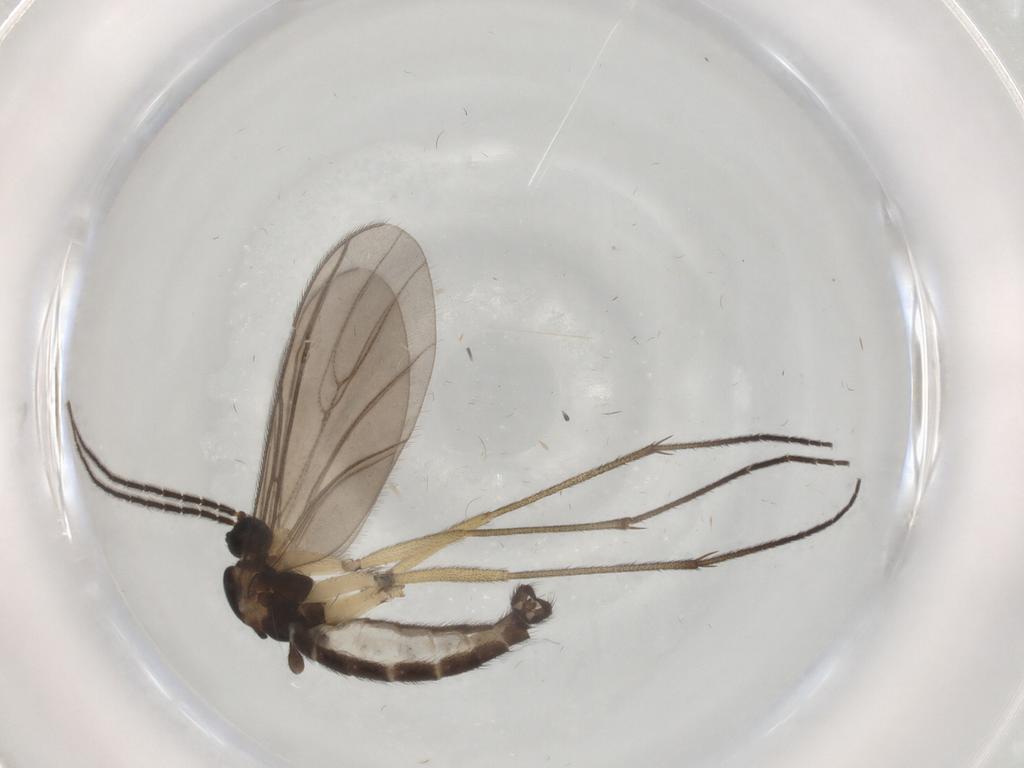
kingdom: Animalia
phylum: Arthropoda
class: Insecta
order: Diptera
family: Sciaridae
